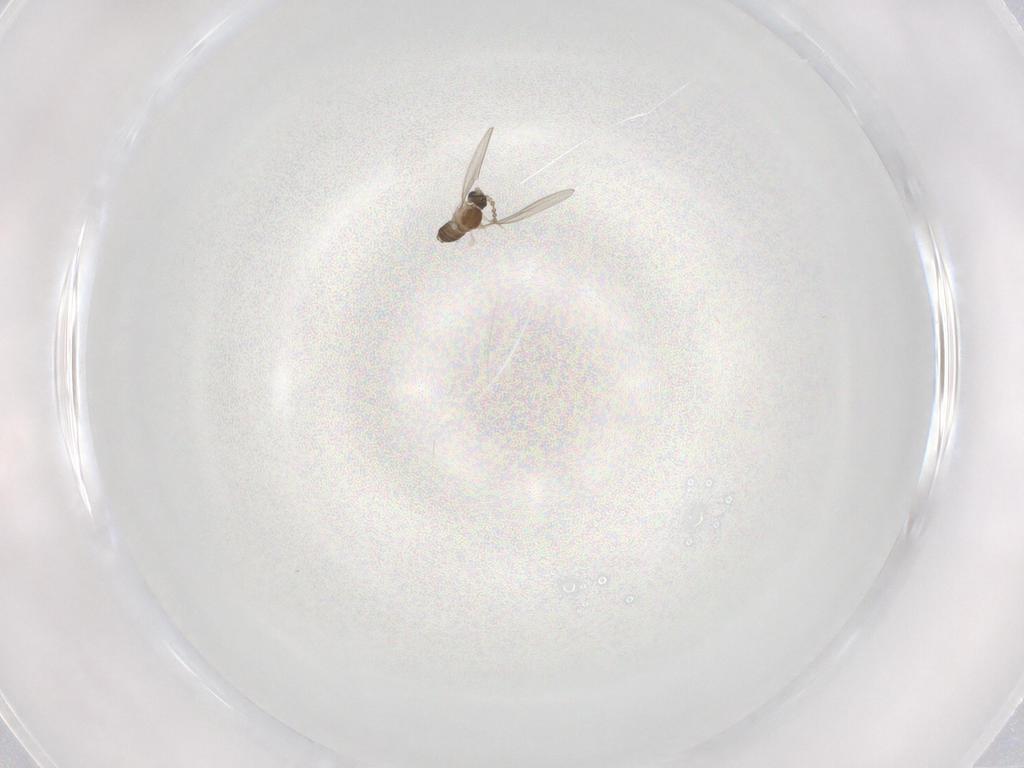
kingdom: Animalia
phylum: Arthropoda
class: Insecta
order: Diptera
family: Cecidomyiidae
